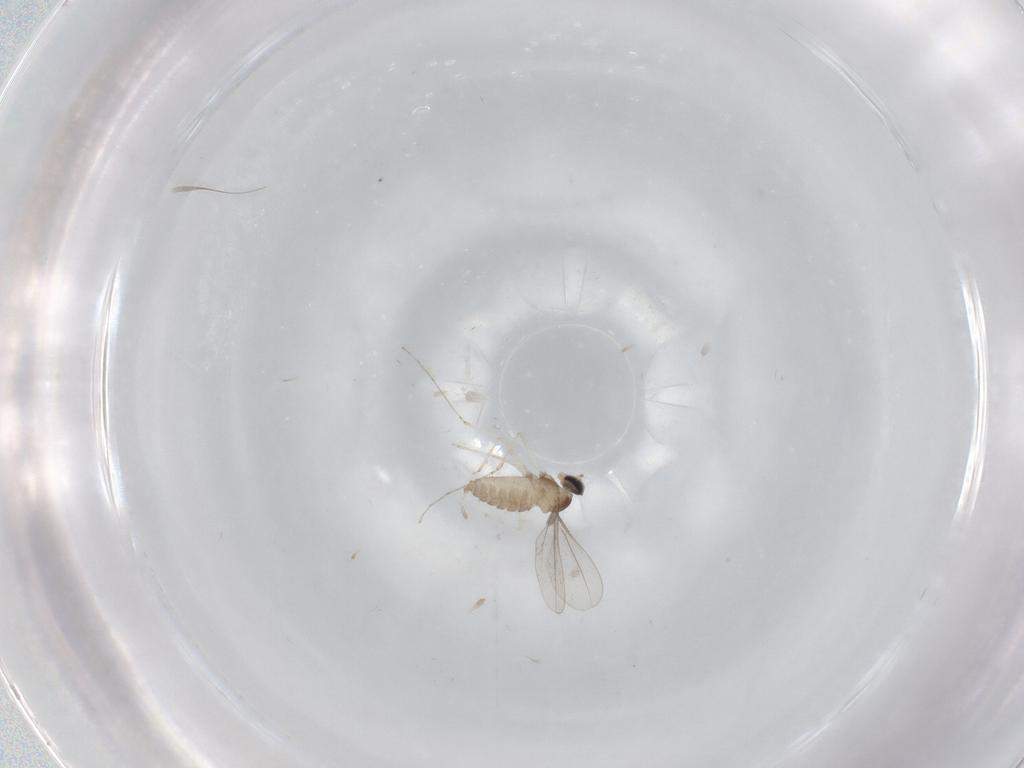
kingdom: Animalia
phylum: Arthropoda
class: Insecta
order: Diptera
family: Cecidomyiidae
